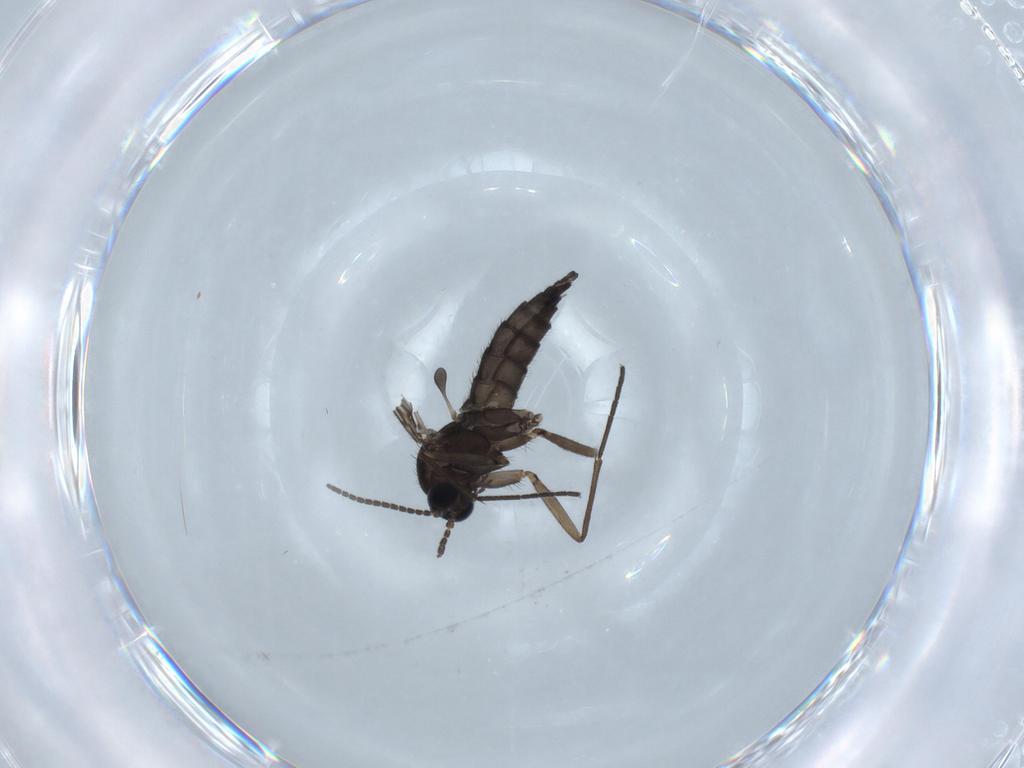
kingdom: Animalia
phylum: Arthropoda
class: Insecta
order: Diptera
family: Sciaridae
